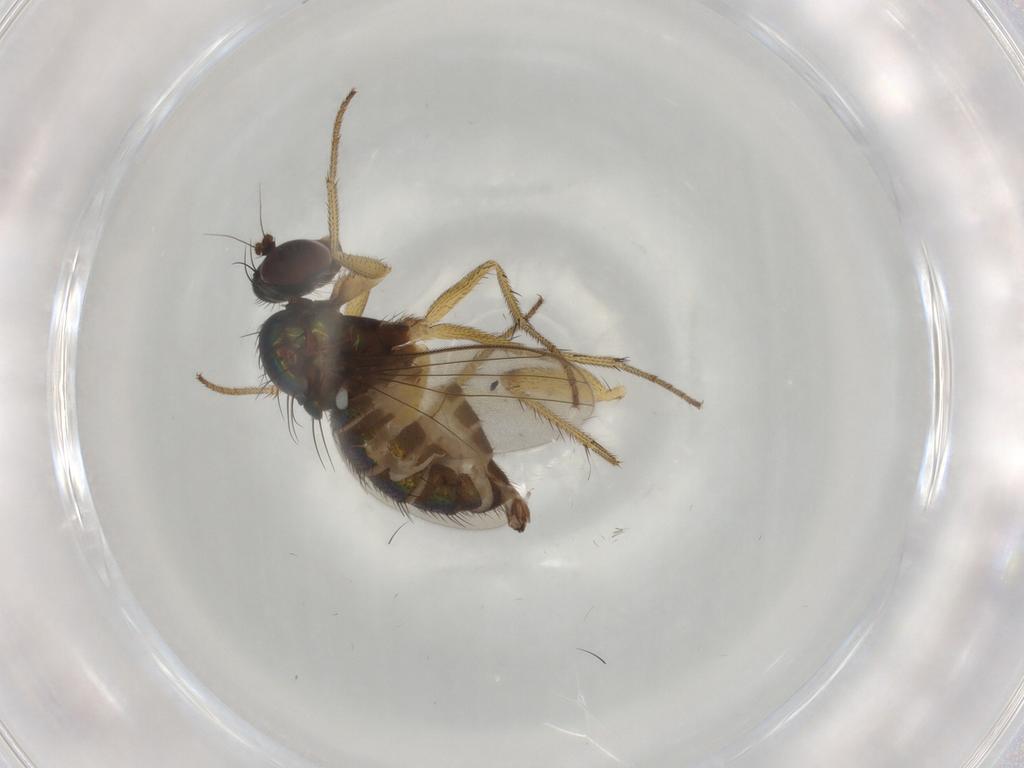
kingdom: Animalia
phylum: Arthropoda
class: Insecta
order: Diptera
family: Dolichopodidae
